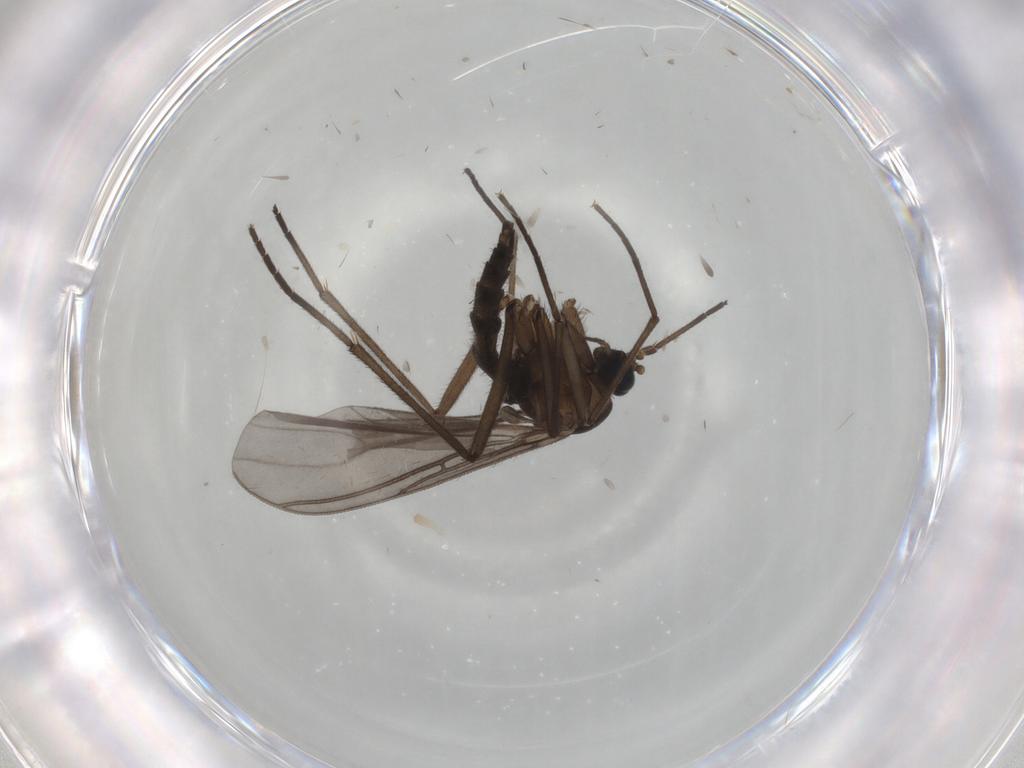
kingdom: Animalia
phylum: Arthropoda
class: Insecta
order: Diptera
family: Sciaridae
